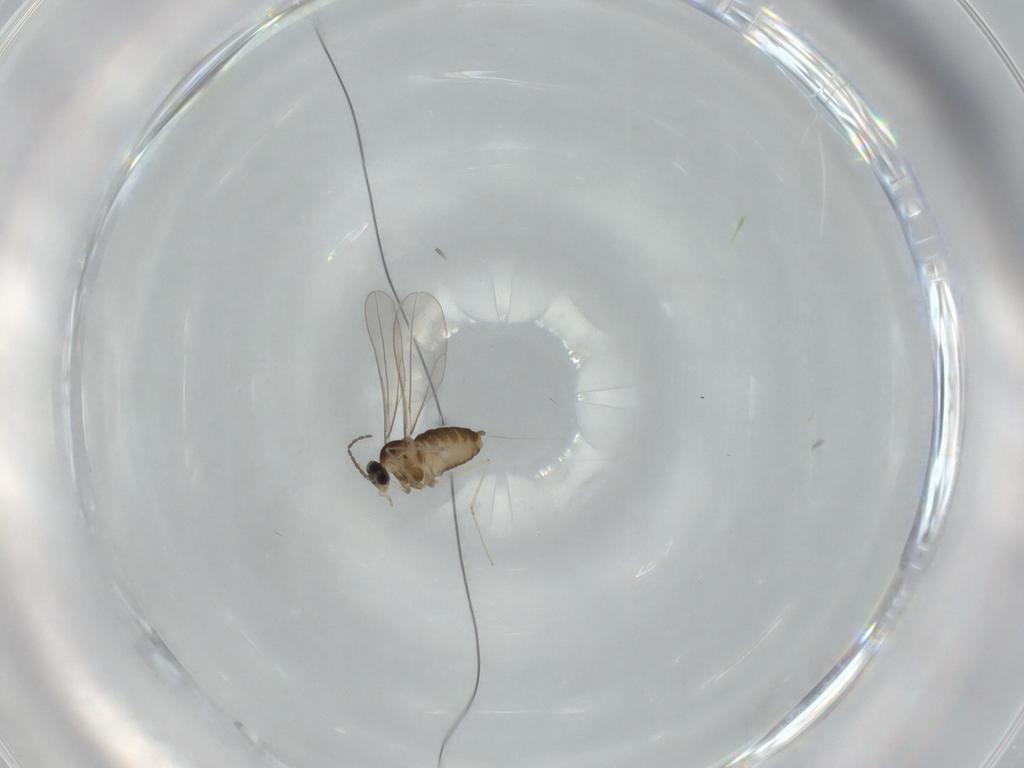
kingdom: Animalia
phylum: Arthropoda
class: Insecta
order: Diptera
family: Cecidomyiidae
